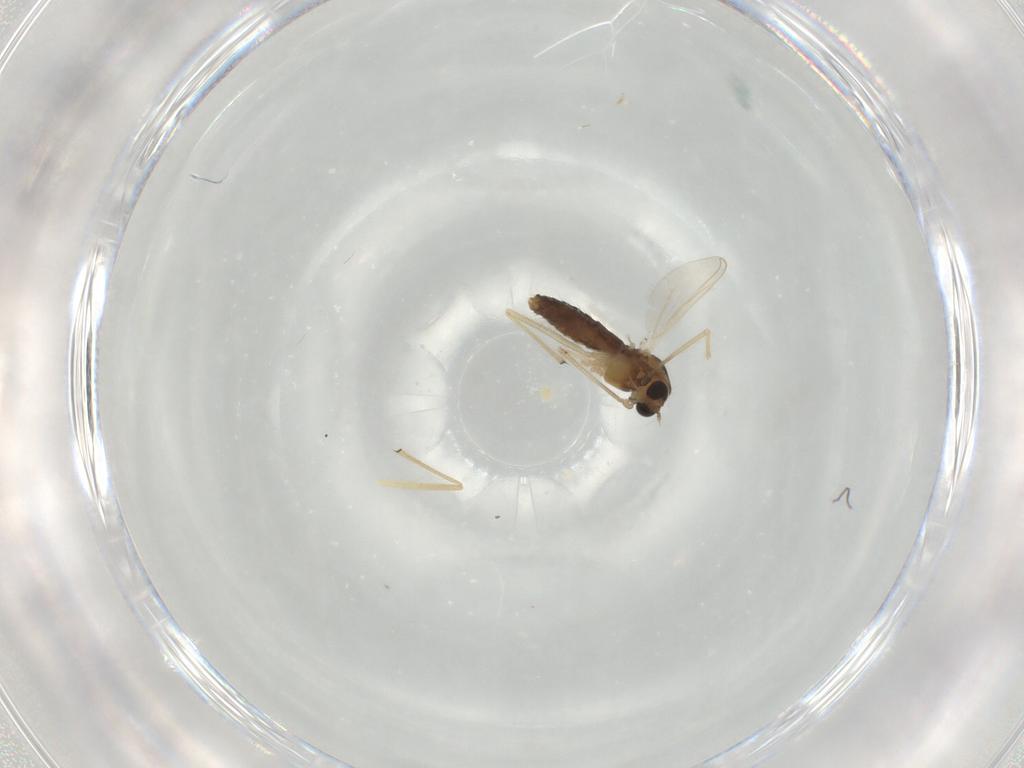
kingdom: Animalia
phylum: Arthropoda
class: Insecta
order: Diptera
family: Chironomidae
